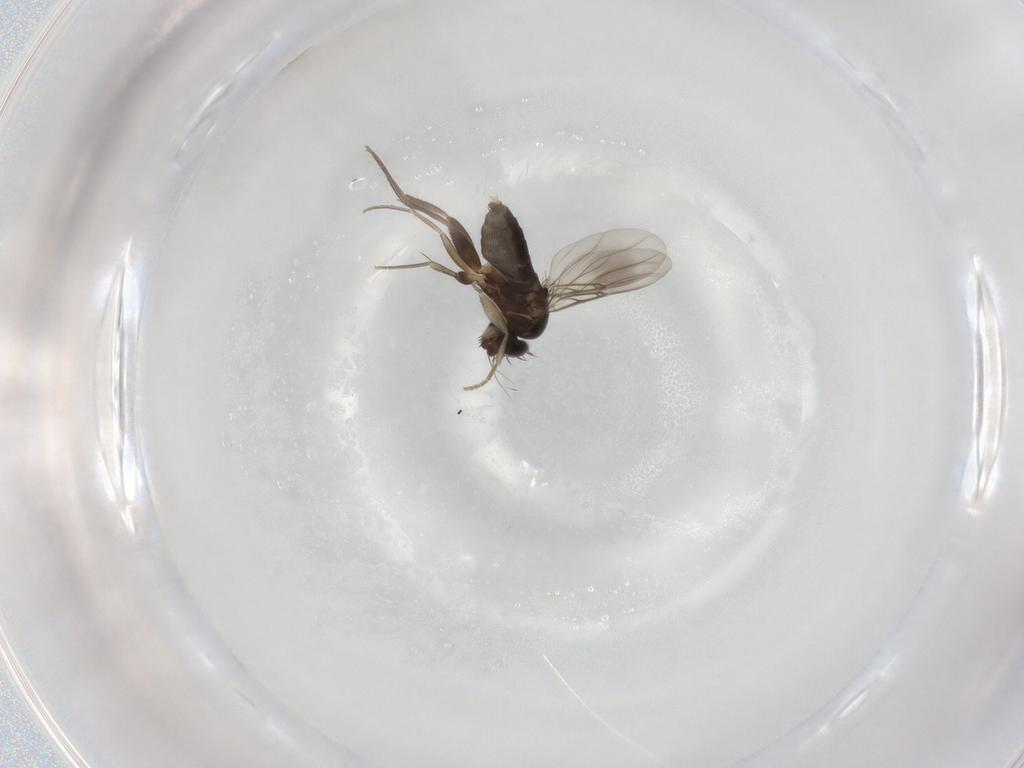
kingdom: Animalia
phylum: Arthropoda
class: Insecta
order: Diptera
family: Phoridae
